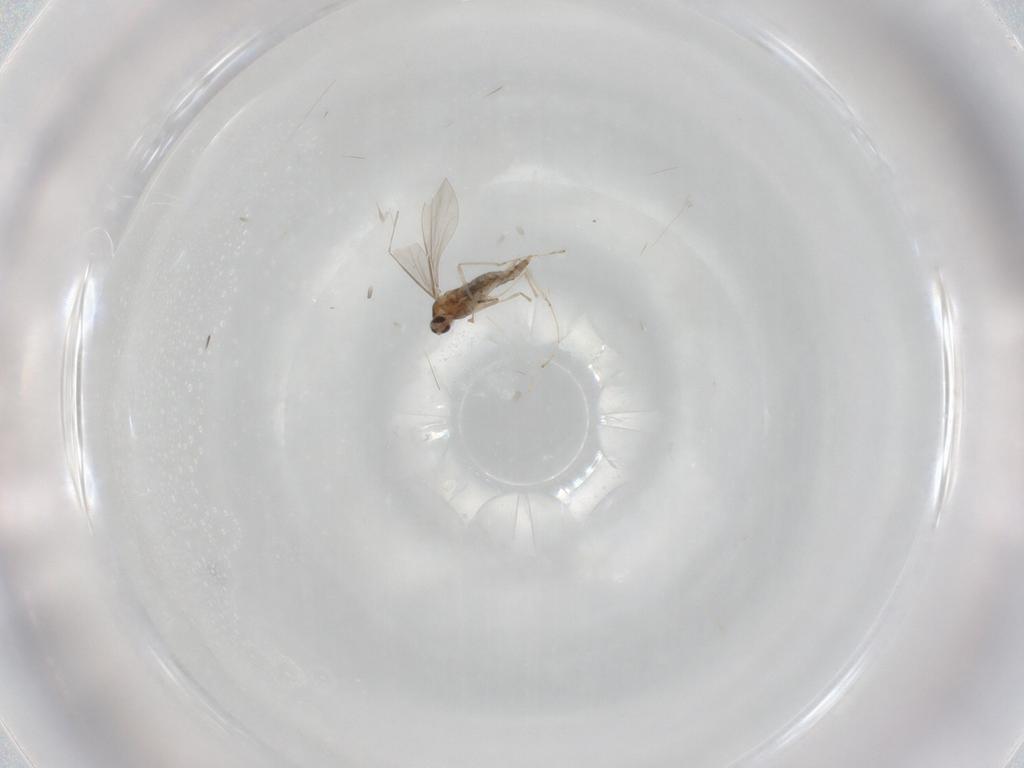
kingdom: Animalia
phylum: Arthropoda
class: Insecta
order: Diptera
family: Cecidomyiidae
